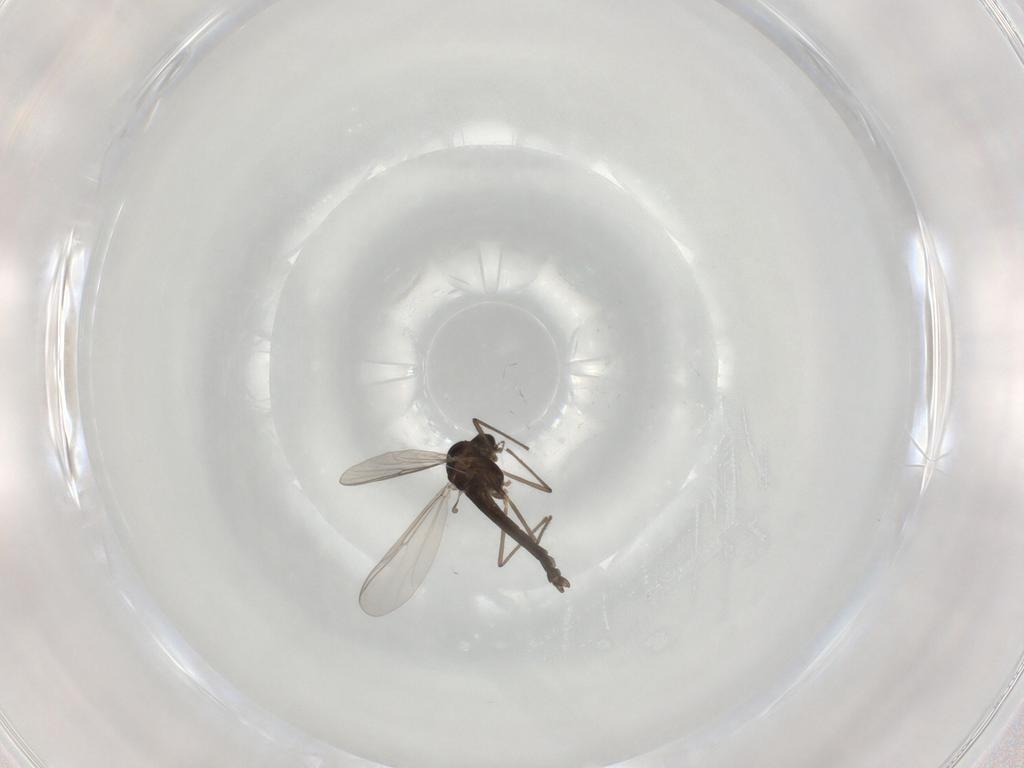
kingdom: Animalia
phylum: Arthropoda
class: Insecta
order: Diptera
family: Chironomidae
